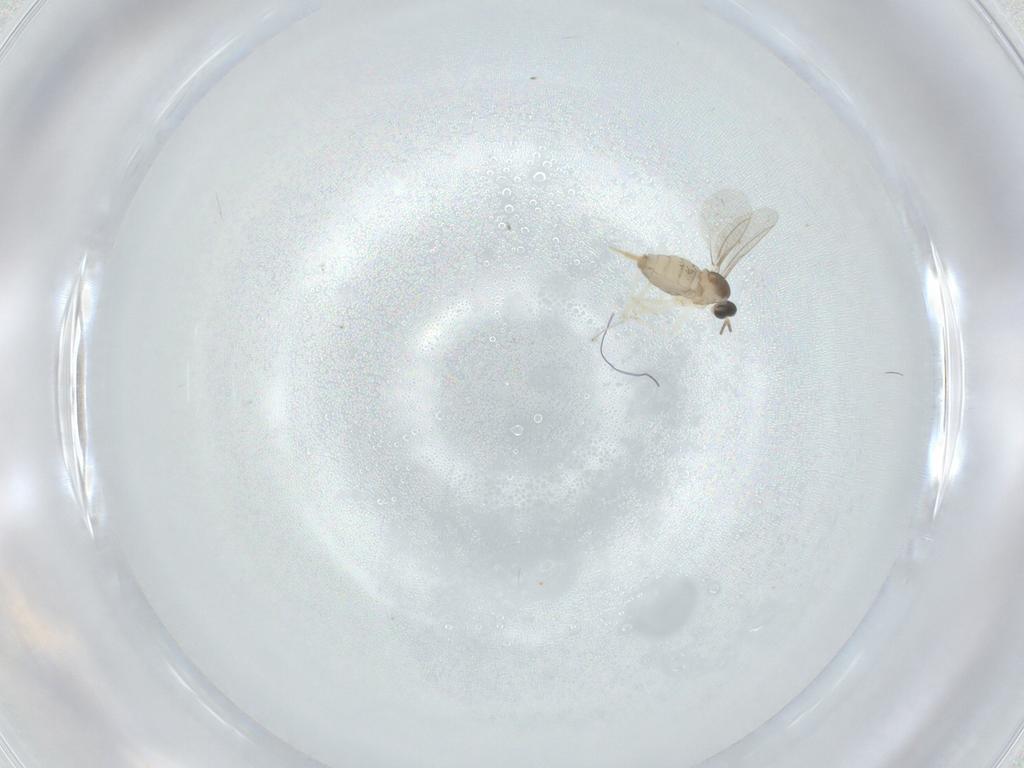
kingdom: Animalia
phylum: Arthropoda
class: Insecta
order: Diptera
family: Cecidomyiidae
